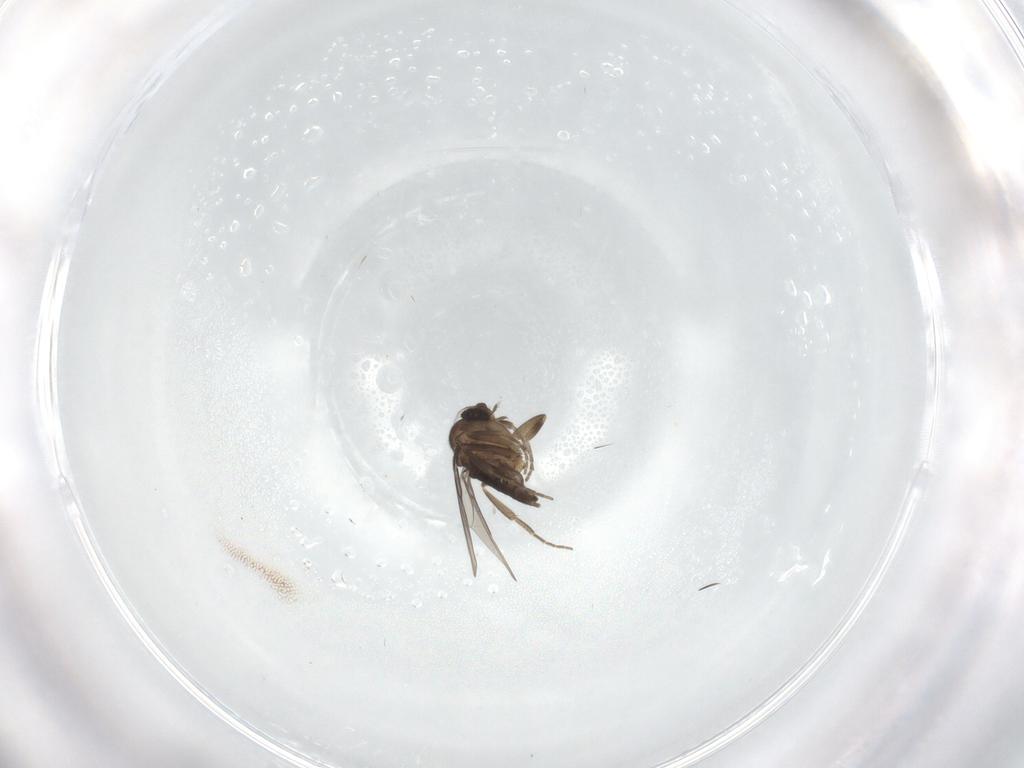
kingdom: Animalia
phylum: Arthropoda
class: Insecta
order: Diptera
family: Phoridae
